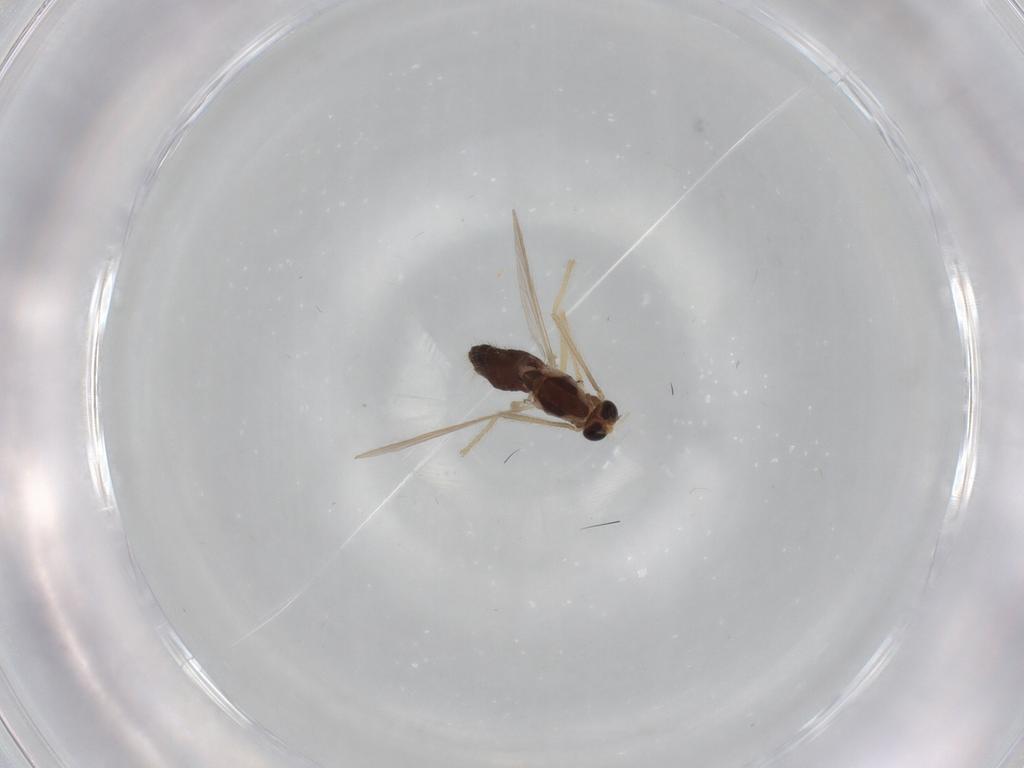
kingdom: Animalia
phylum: Arthropoda
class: Insecta
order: Diptera
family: Chironomidae
